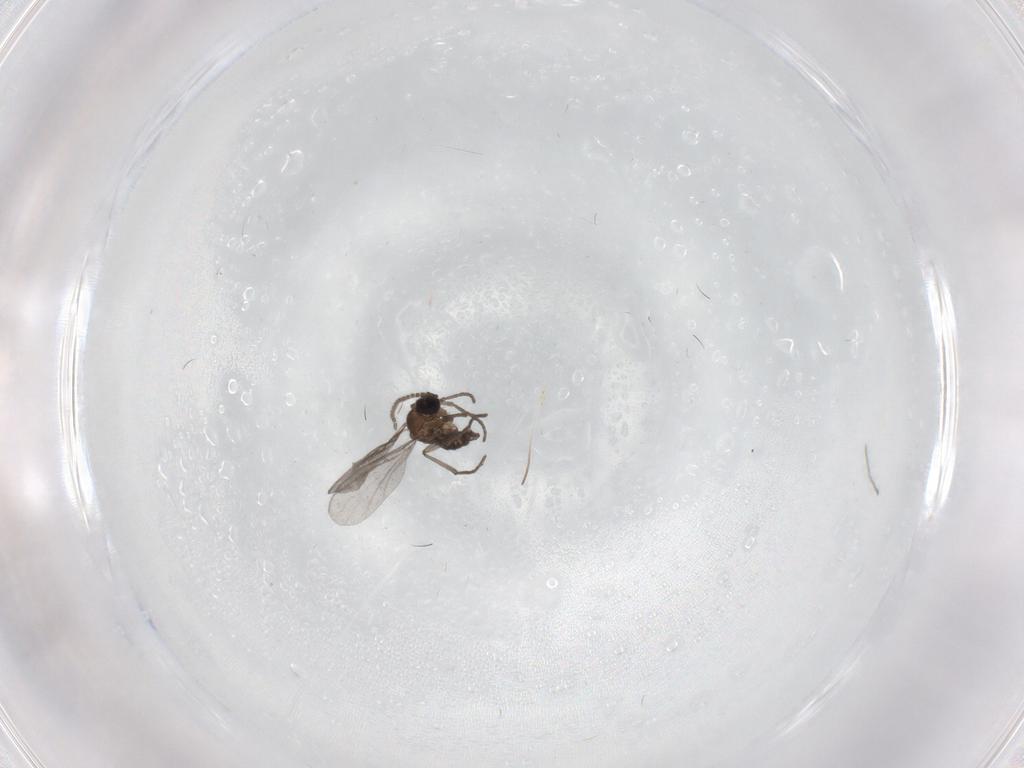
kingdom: Animalia
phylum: Arthropoda
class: Insecta
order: Diptera
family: Sciaridae
